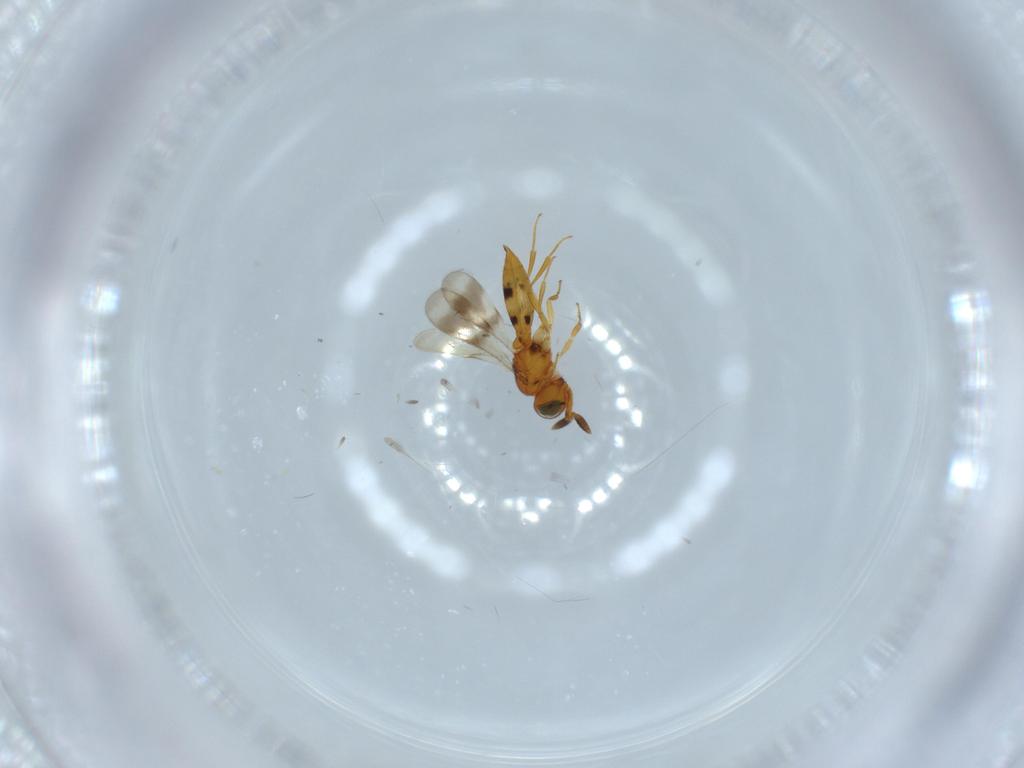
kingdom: Animalia
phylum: Arthropoda
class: Insecta
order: Hymenoptera
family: Scelionidae
